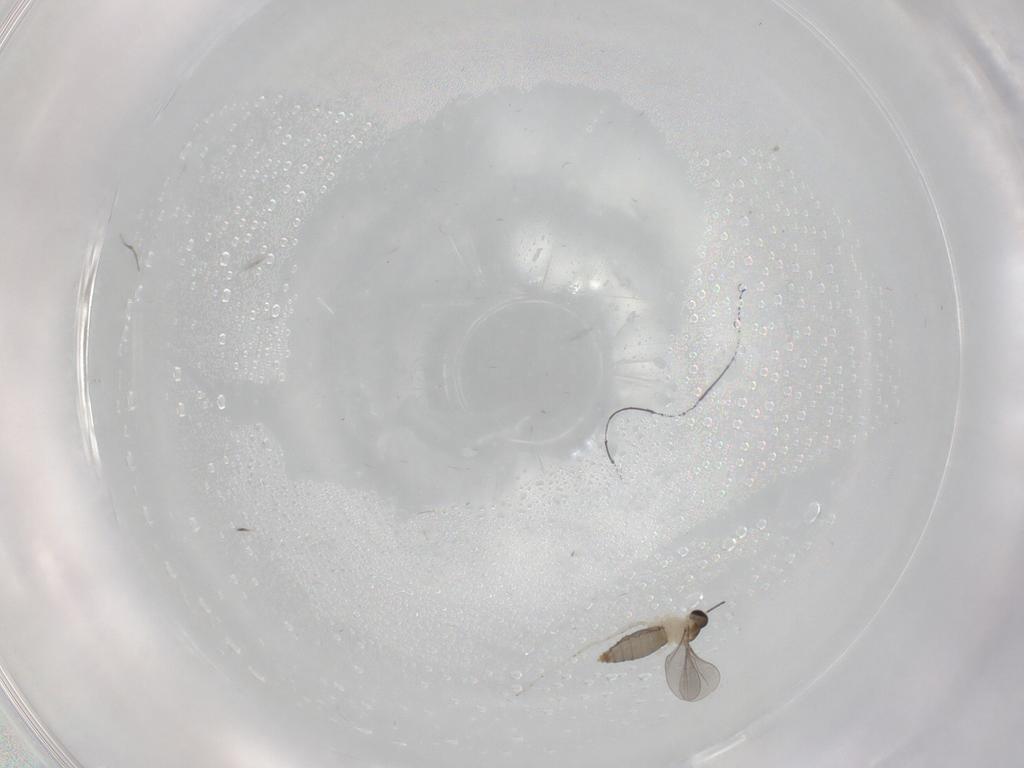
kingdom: Animalia
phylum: Arthropoda
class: Insecta
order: Diptera
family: Cecidomyiidae
